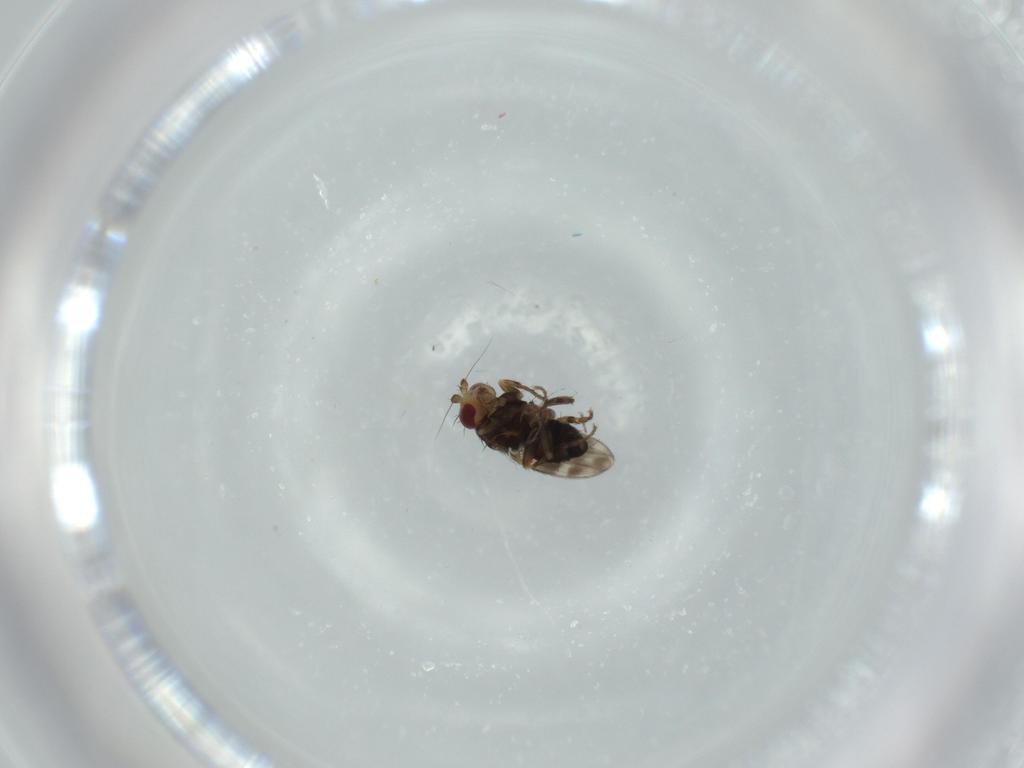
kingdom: Animalia
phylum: Arthropoda
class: Insecta
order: Diptera
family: Sphaeroceridae
